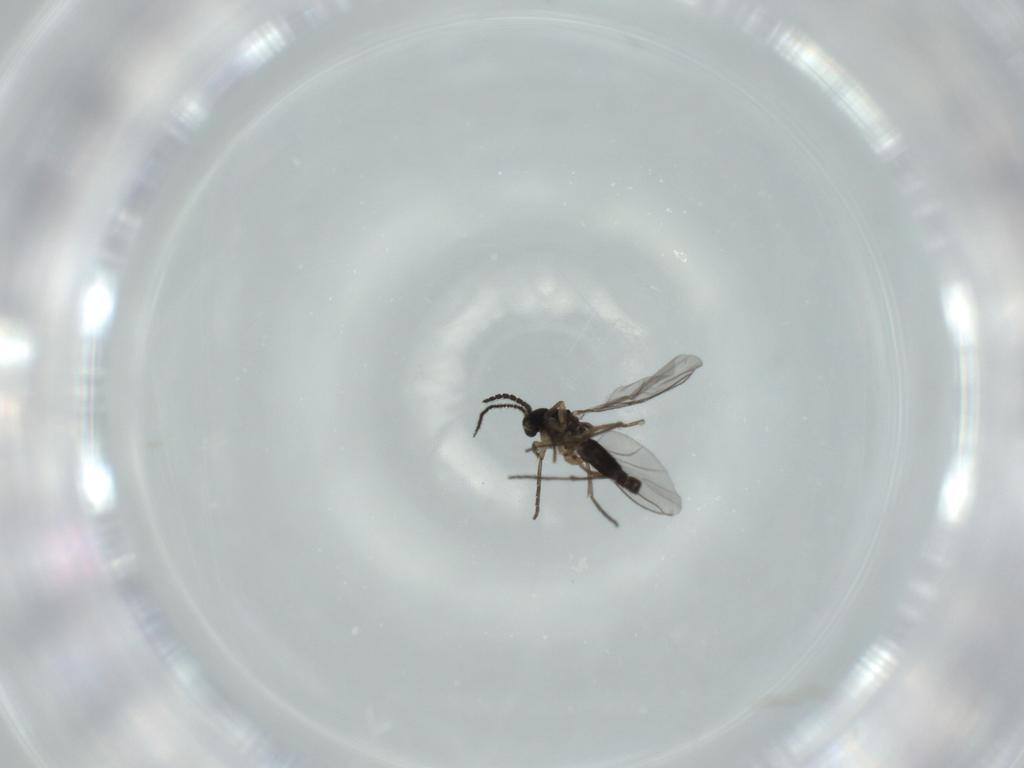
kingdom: Animalia
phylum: Arthropoda
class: Insecta
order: Diptera
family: Sciaridae
